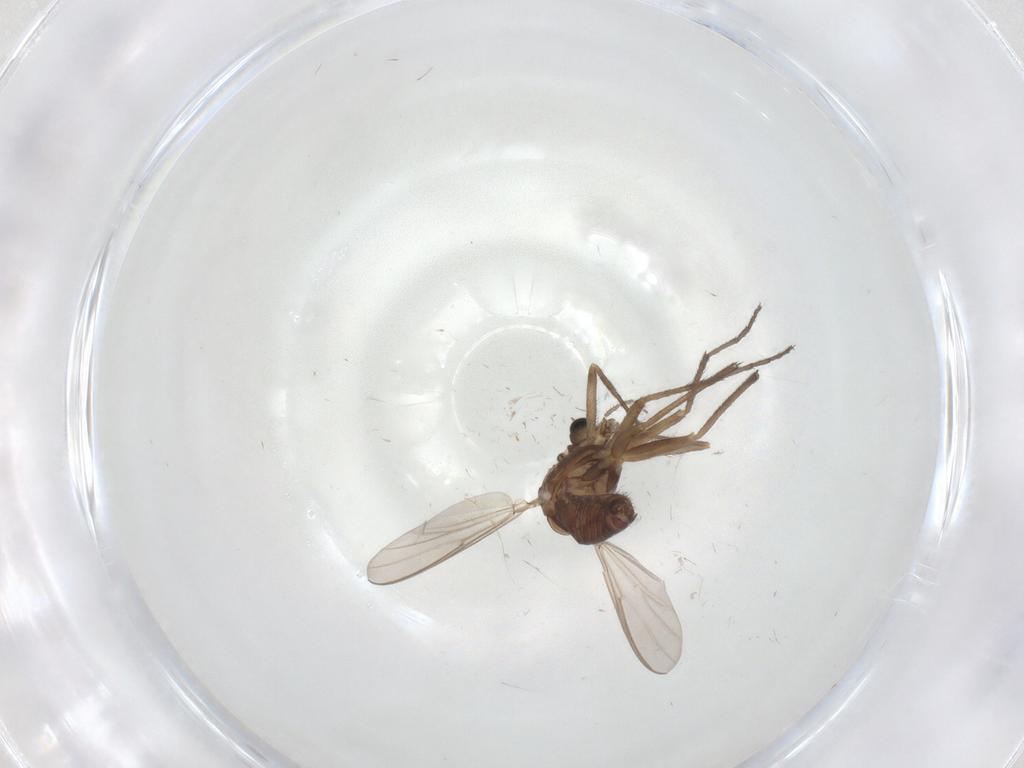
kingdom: Animalia
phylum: Arthropoda
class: Insecta
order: Diptera
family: Chironomidae
